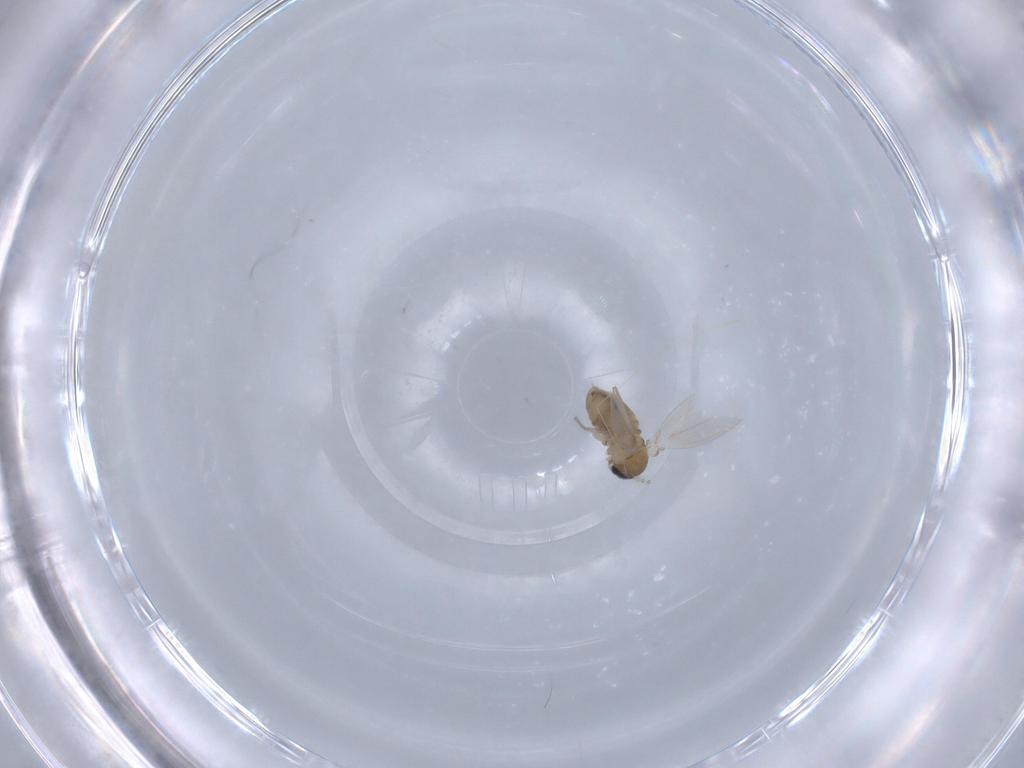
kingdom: Animalia
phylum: Arthropoda
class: Insecta
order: Diptera
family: Psychodidae
